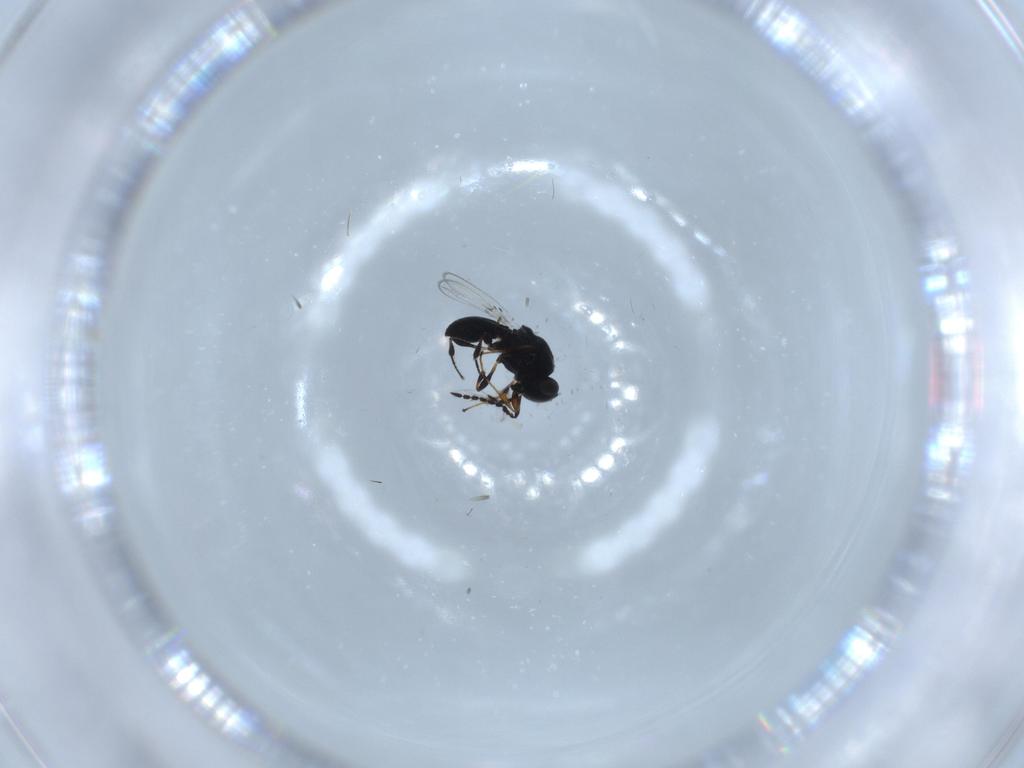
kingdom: Animalia
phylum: Arthropoda
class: Insecta
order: Hymenoptera
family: Platygastridae
